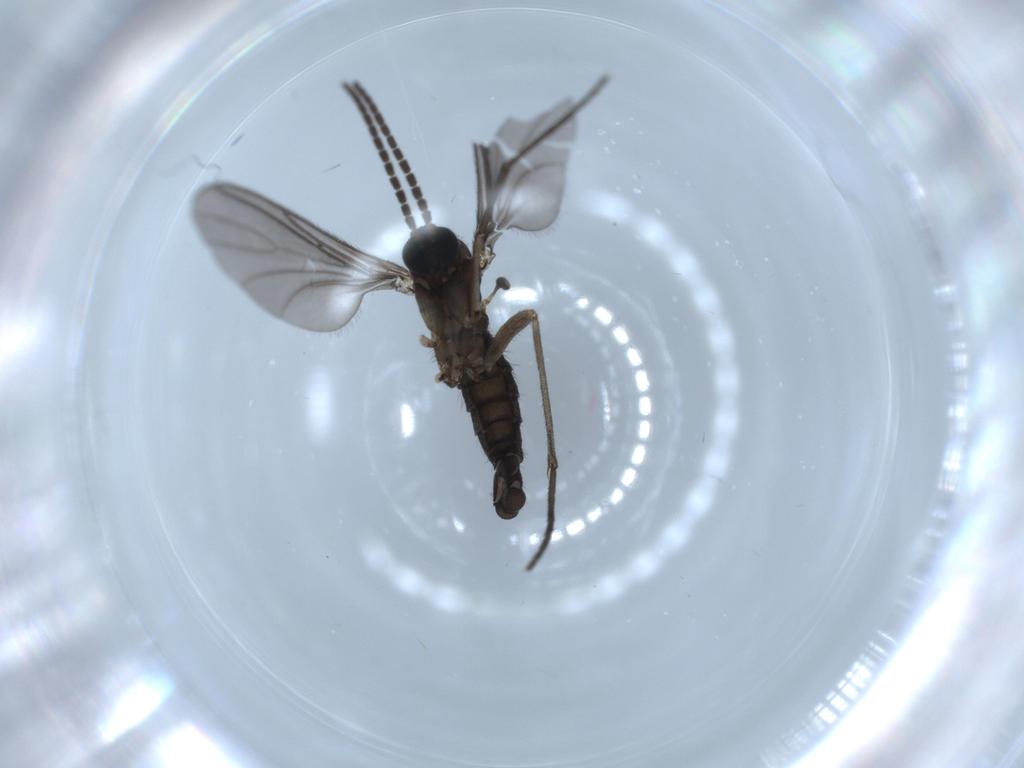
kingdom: Animalia
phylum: Arthropoda
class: Insecta
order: Diptera
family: Sciaridae
